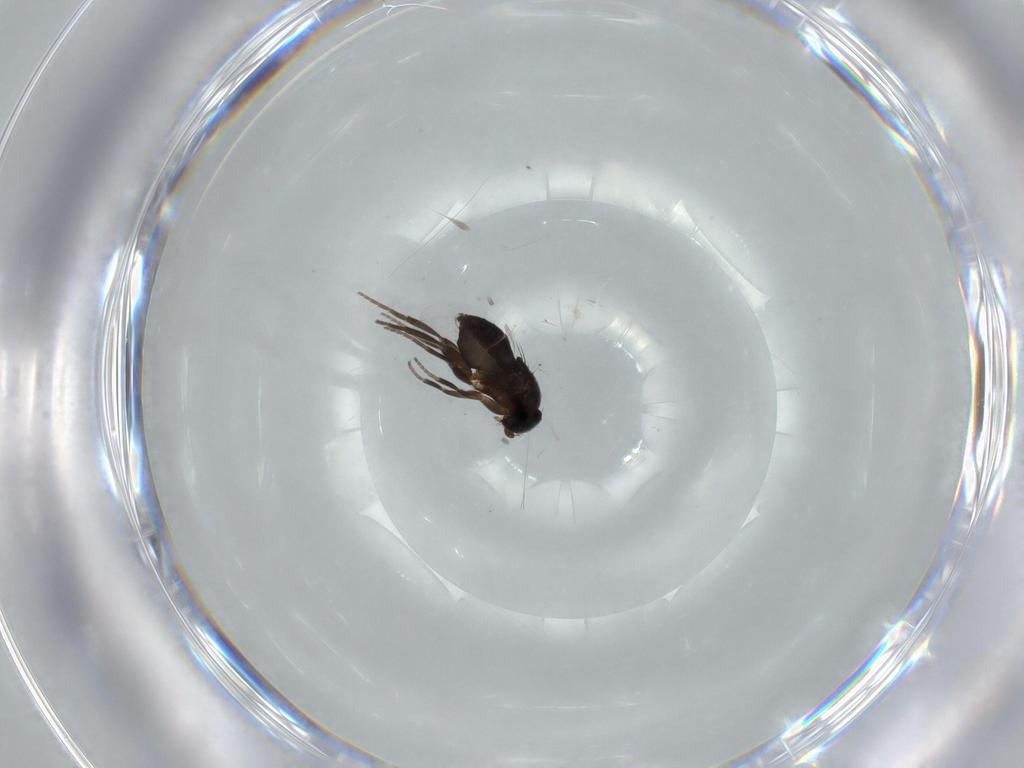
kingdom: Animalia
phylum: Arthropoda
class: Insecta
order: Diptera
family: Phoridae
